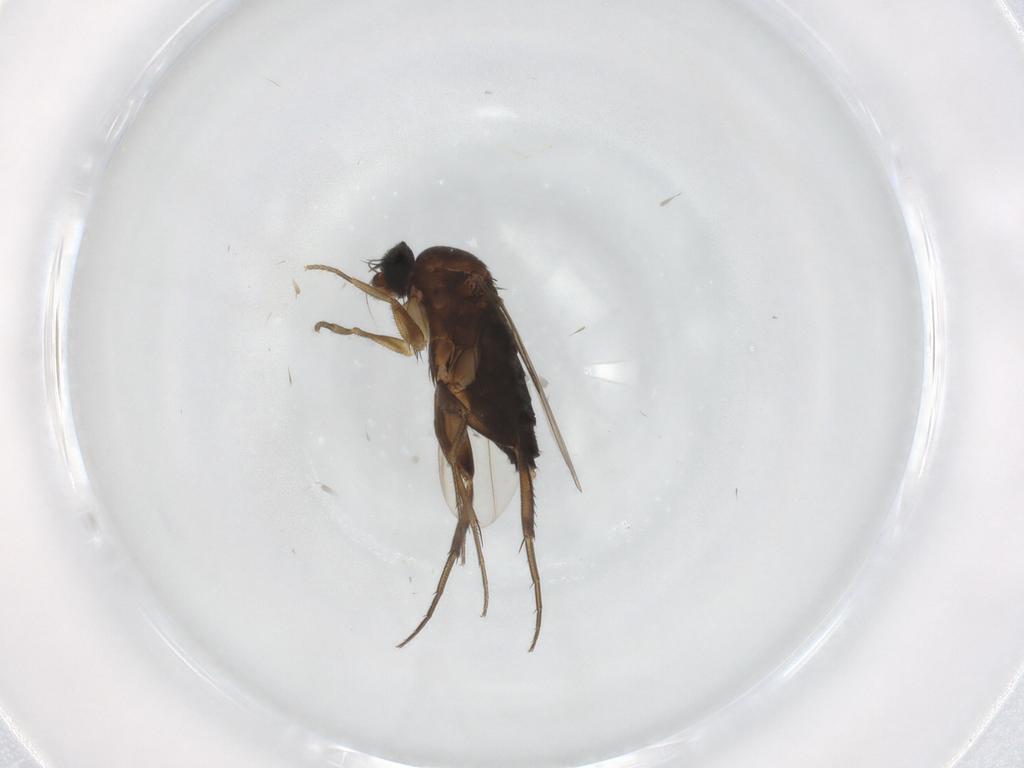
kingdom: Animalia
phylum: Arthropoda
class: Insecta
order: Diptera
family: Phoridae
